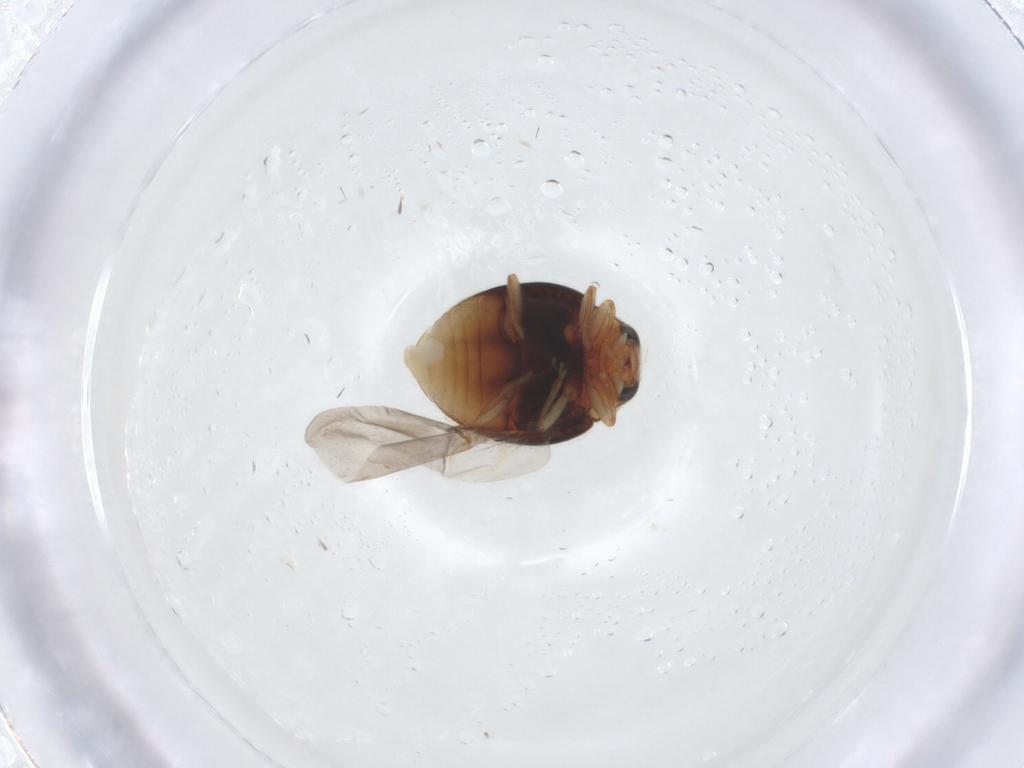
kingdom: Animalia
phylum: Arthropoda
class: Insecta
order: Coleoptera
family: Coccinellidae
